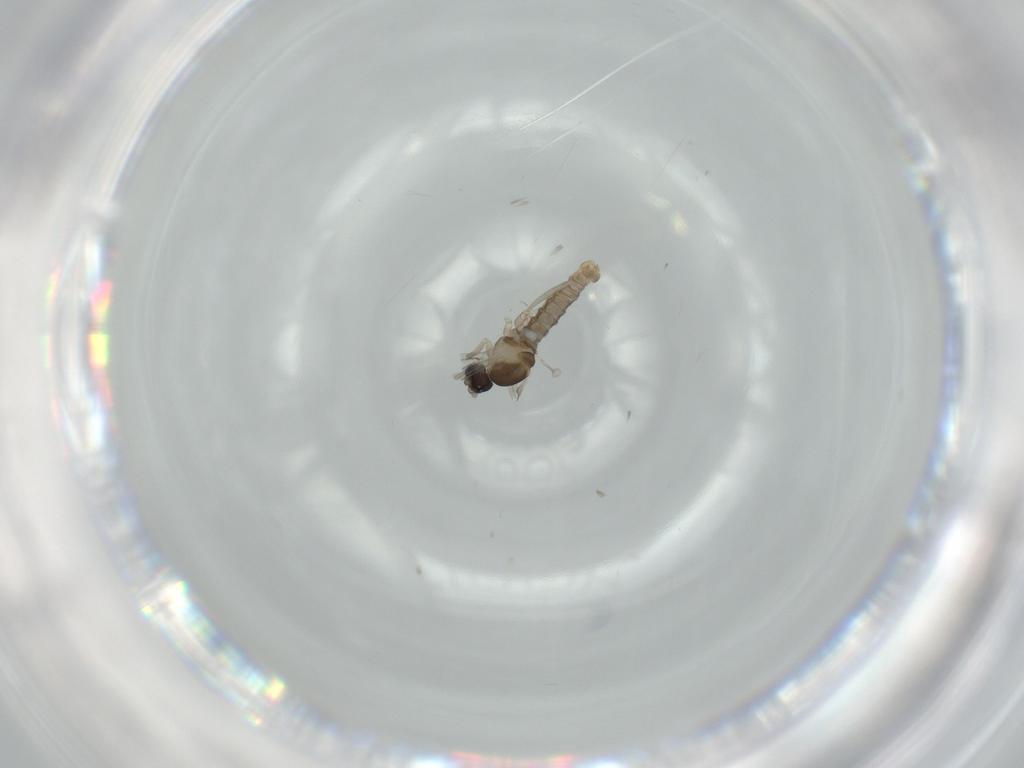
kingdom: Animalia
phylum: Arthropoda
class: Insecta
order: Diptera
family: Cecidomyiidae
